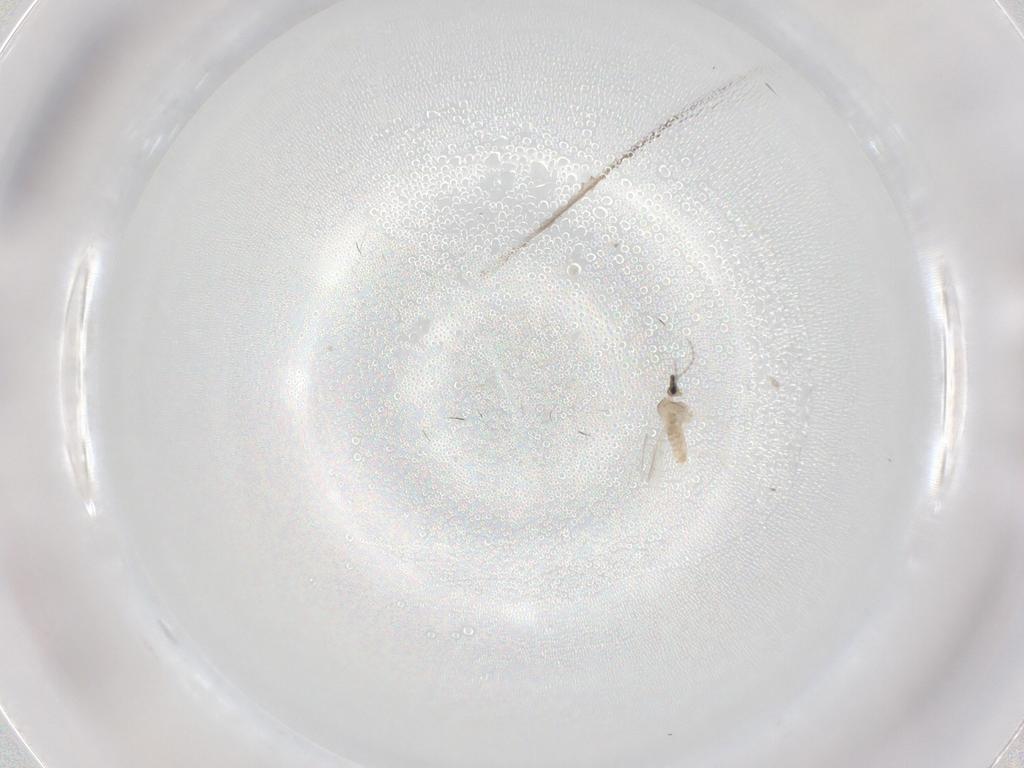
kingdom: Animalia
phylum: Arthropoda
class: Insecta
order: Diptera
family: Cecidomyiidae
